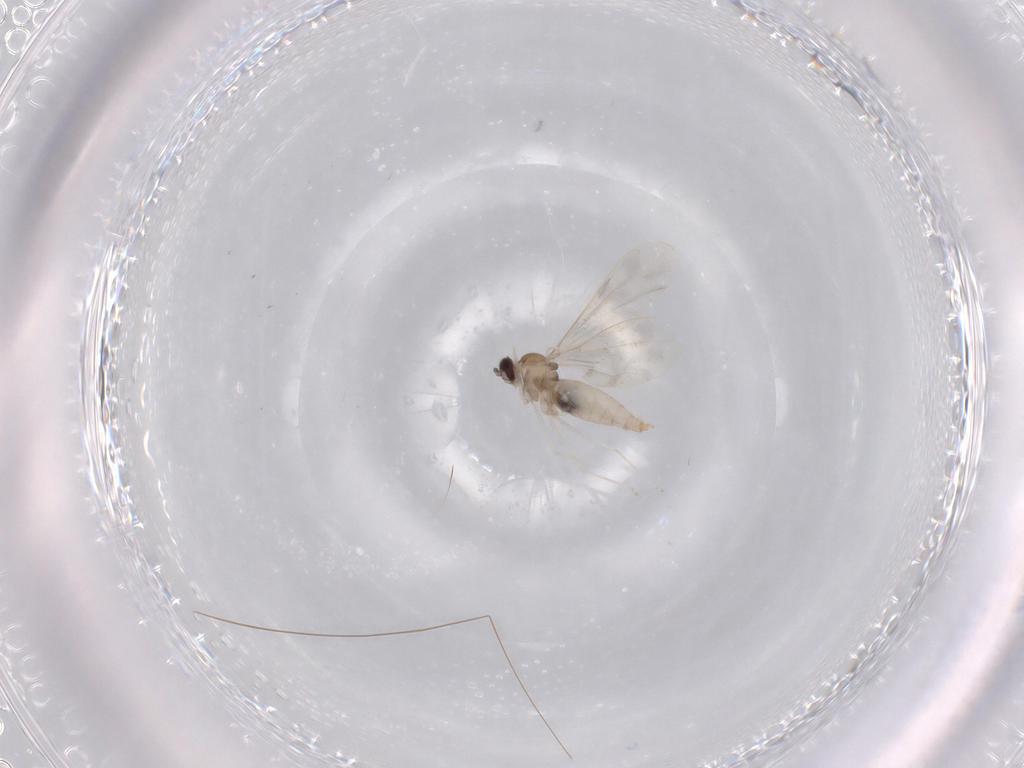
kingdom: Animalia
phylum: Arthropoda
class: Insecta
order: Diptera
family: Cecidomyiidae
